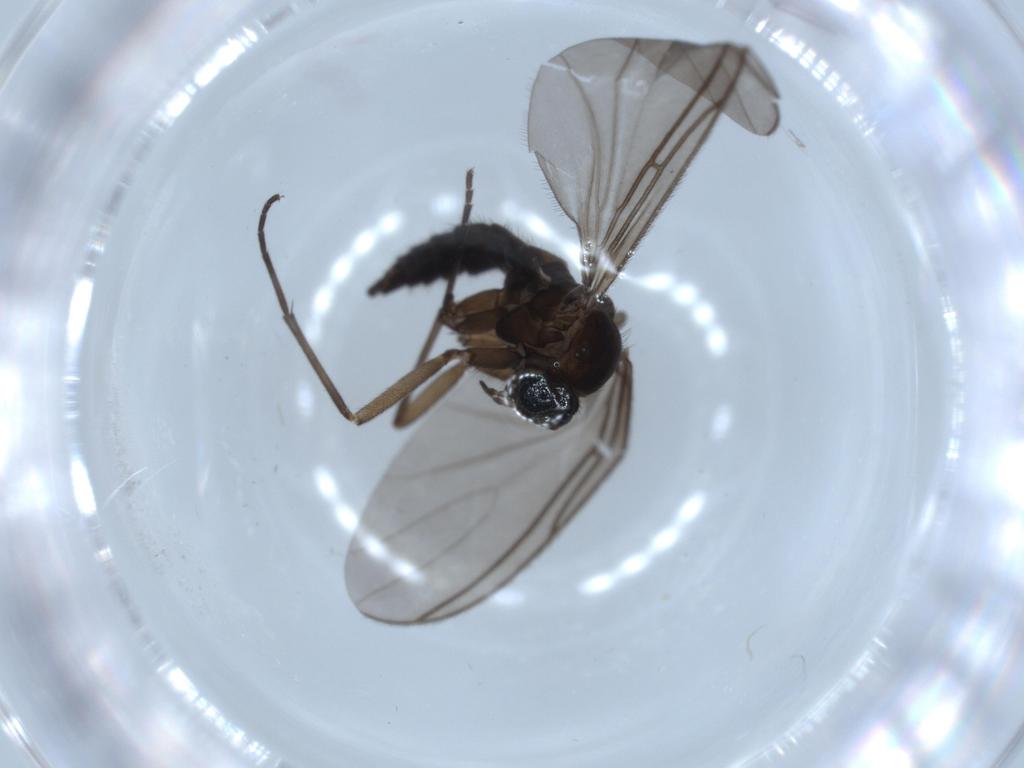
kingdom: Animalia
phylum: Arthropoda
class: Insecta
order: Diptera
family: Sciaridae
